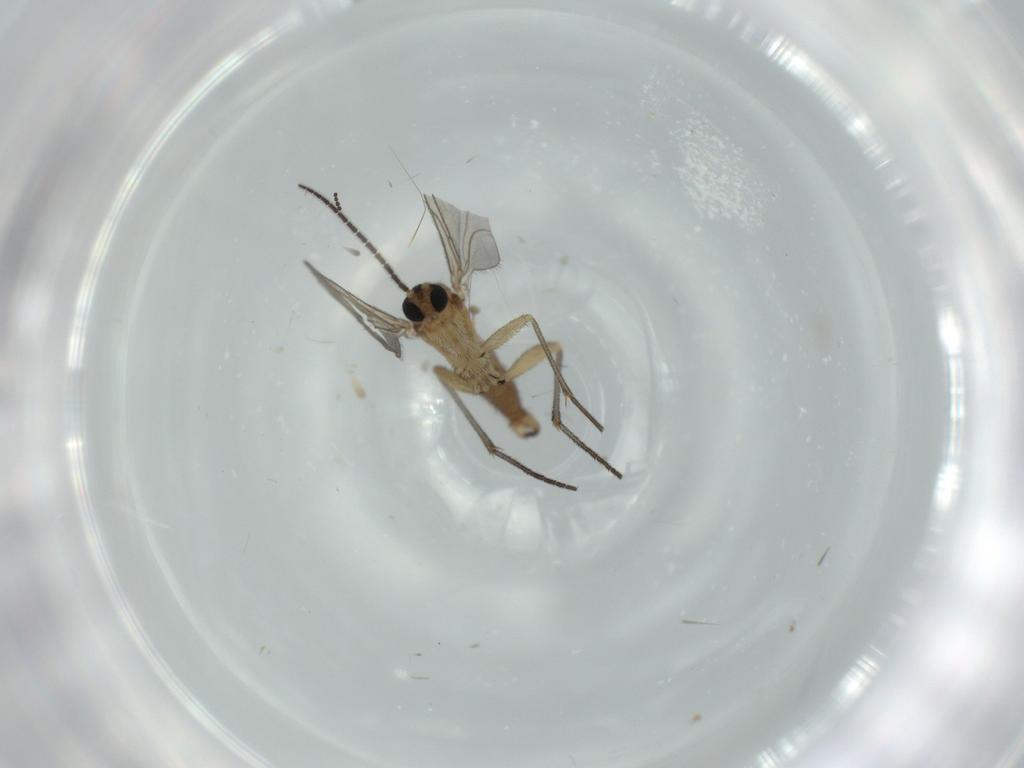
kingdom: Animalia
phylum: Arthropoda
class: Insecta
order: Diptera
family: Sciaridae
